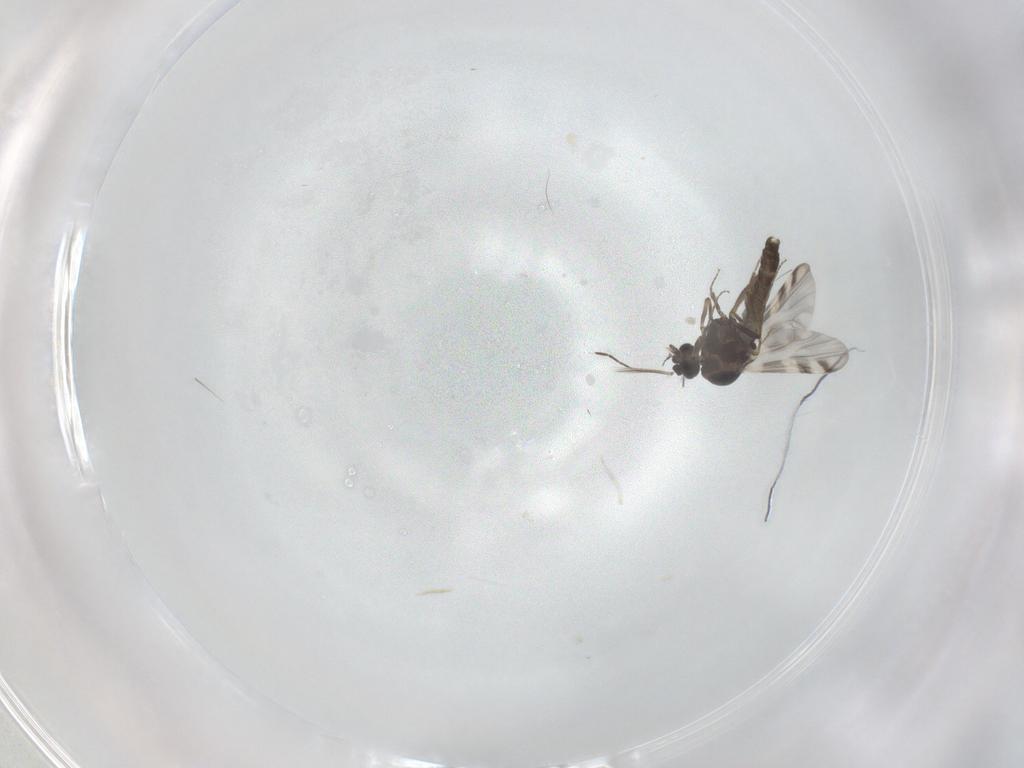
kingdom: Animalia
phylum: Arthropoda
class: Insecta
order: Diptera
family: Ceratopogonidae
